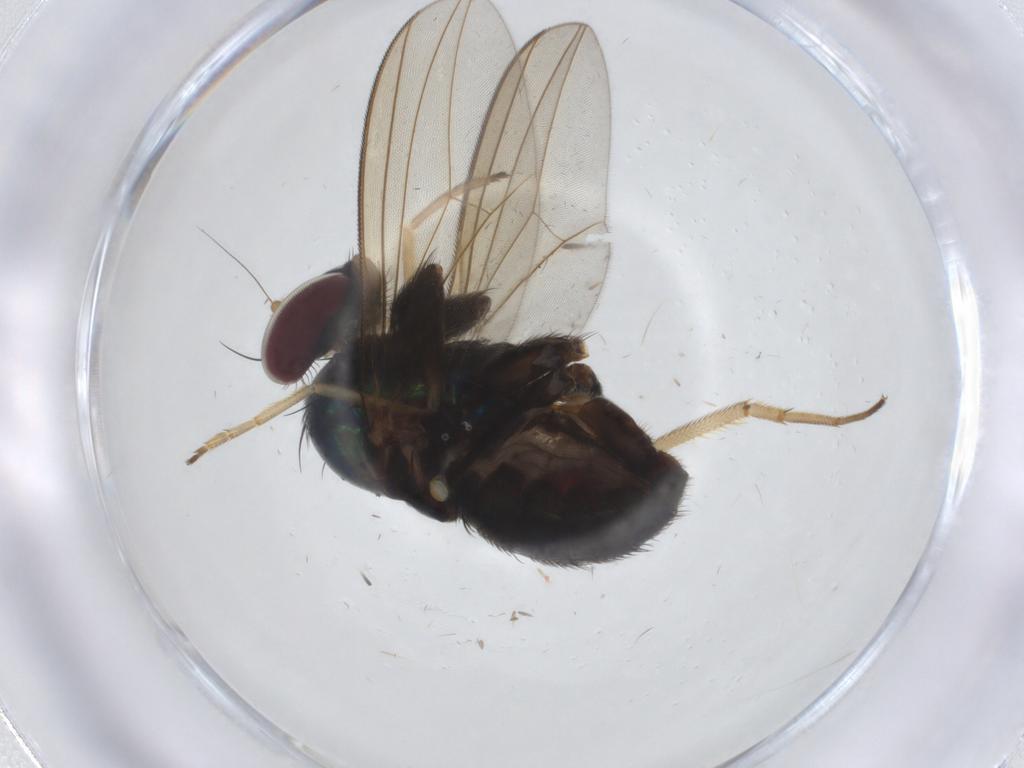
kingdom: Animalia
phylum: Arthropoda
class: Insecta
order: Diptera
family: Dolichopodidae
